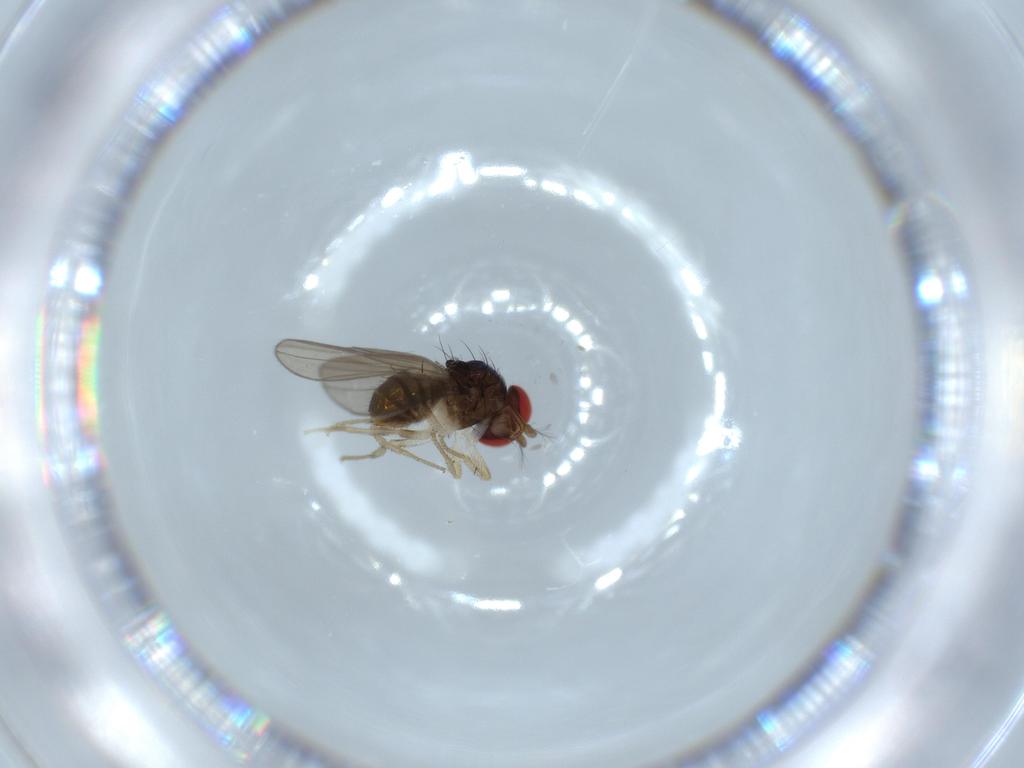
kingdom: Animalia
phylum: Arthropoda
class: Insecta
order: Diptera
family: Drosophilidae
